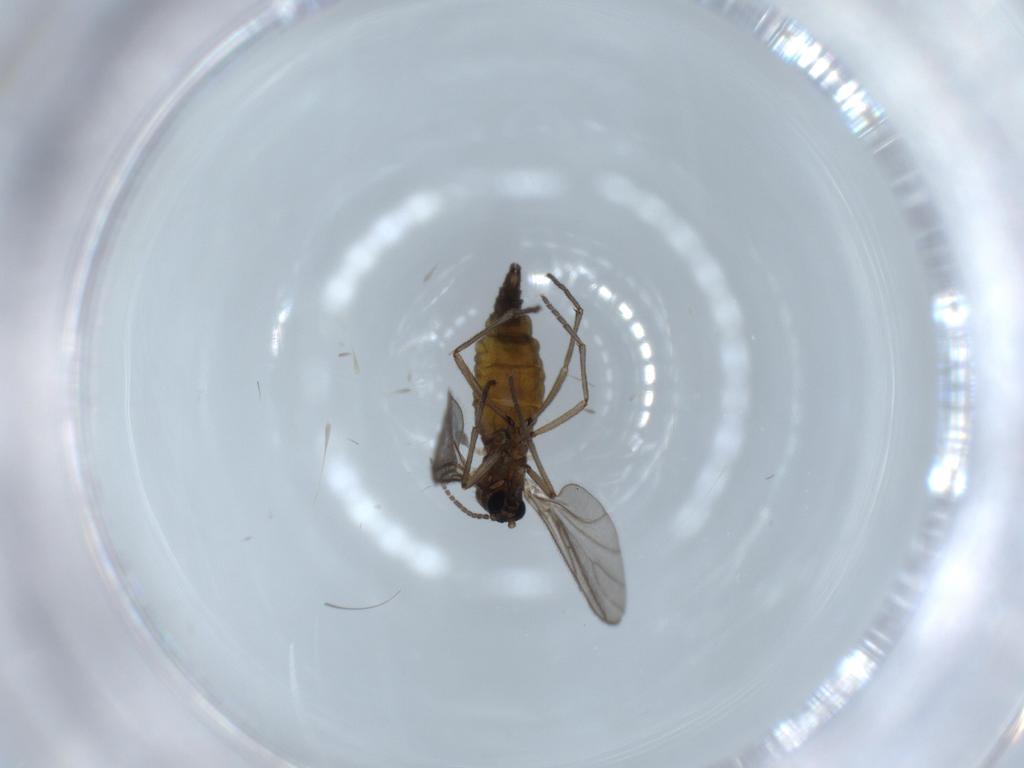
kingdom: Animalia
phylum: Arthropoda
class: Insecta
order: Diptera
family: Sciaridae
